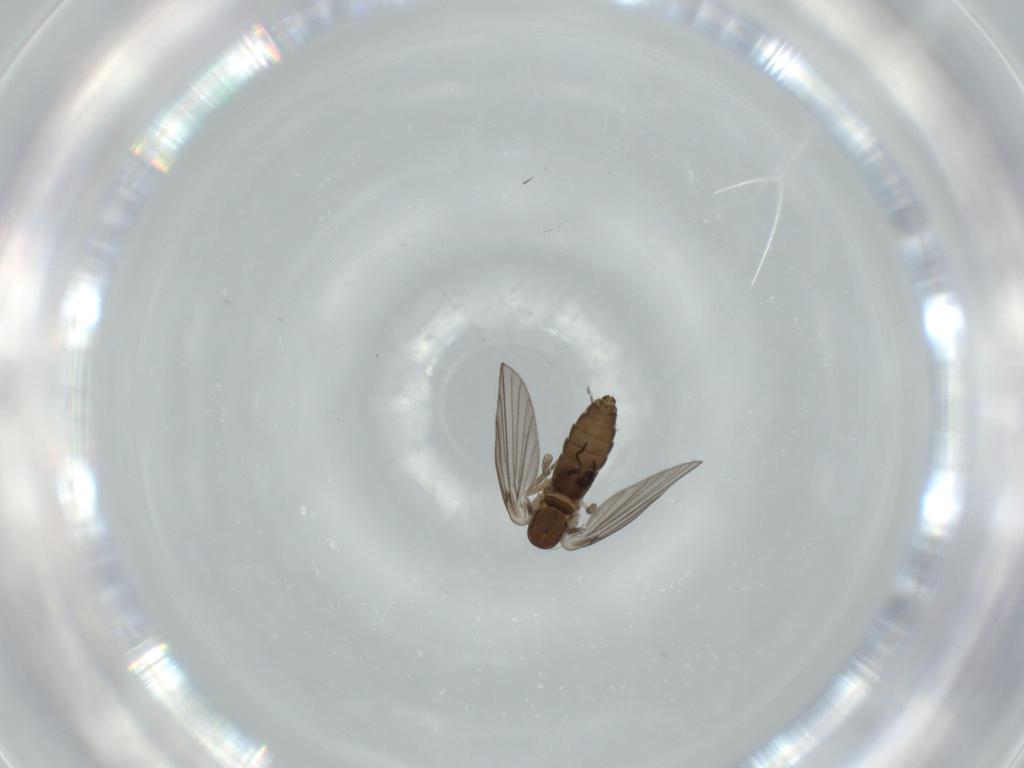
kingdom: Animalia
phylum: Arthropoda
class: Insecta
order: Diptera
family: Psychodidae
